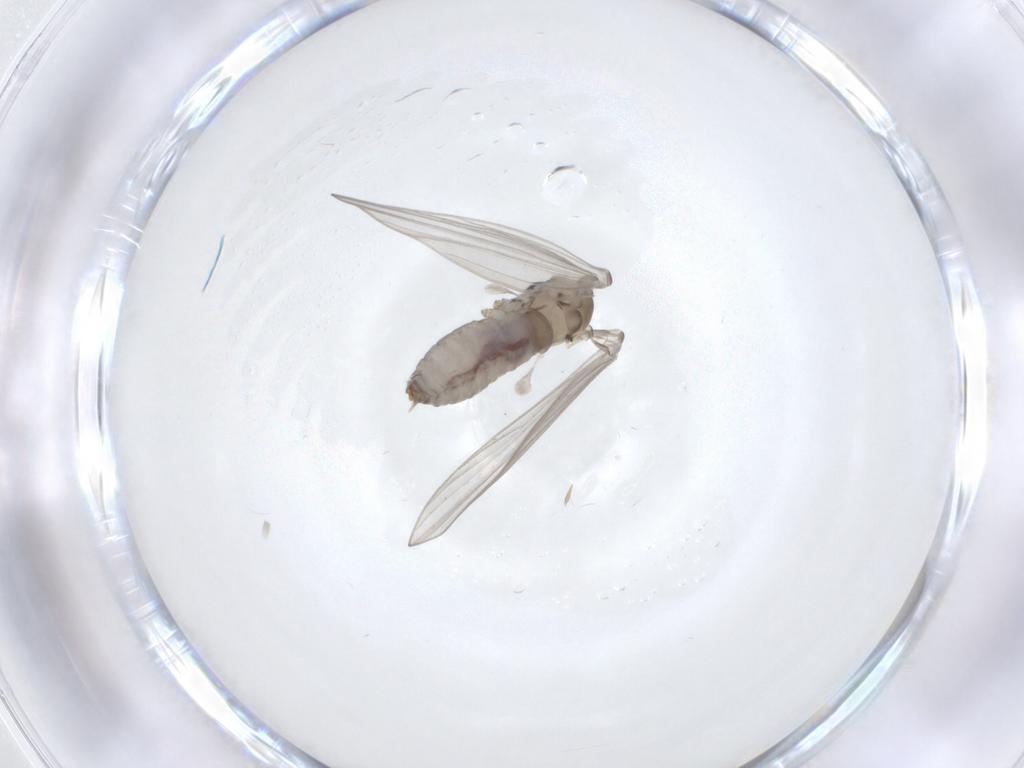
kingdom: Animalia
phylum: Arthropoda
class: Insecta
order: Diptera
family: Psychodidae
